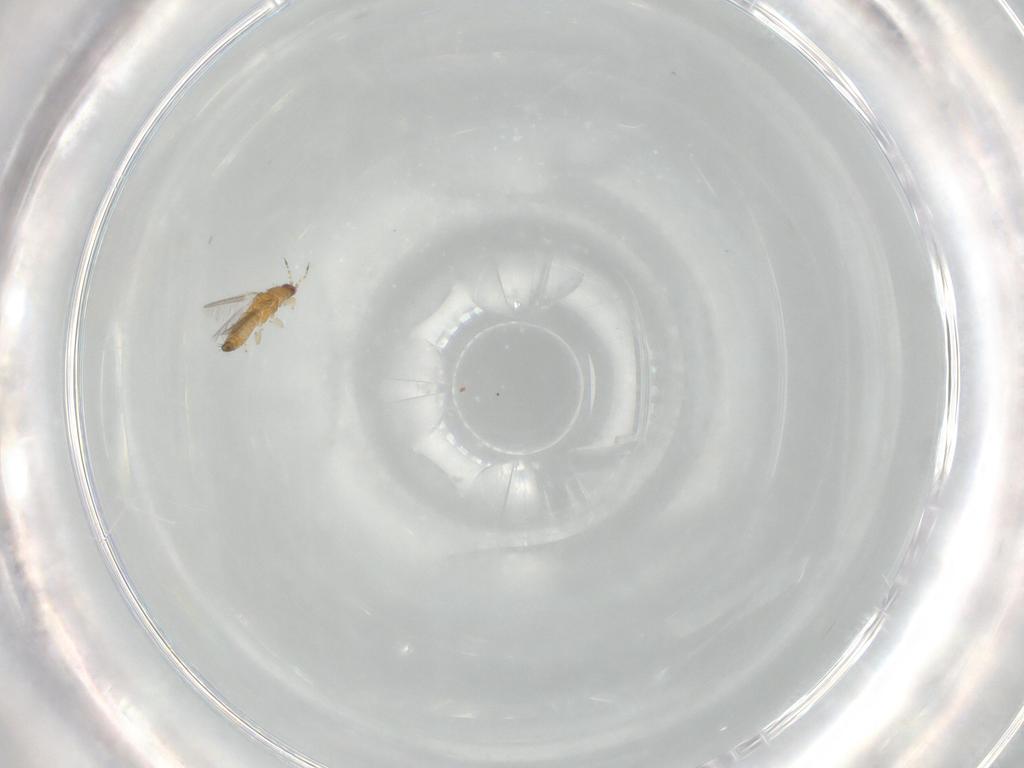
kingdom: Animalia
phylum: Arthropoda
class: Insecta
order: Thysanoptera
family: Thripidae
